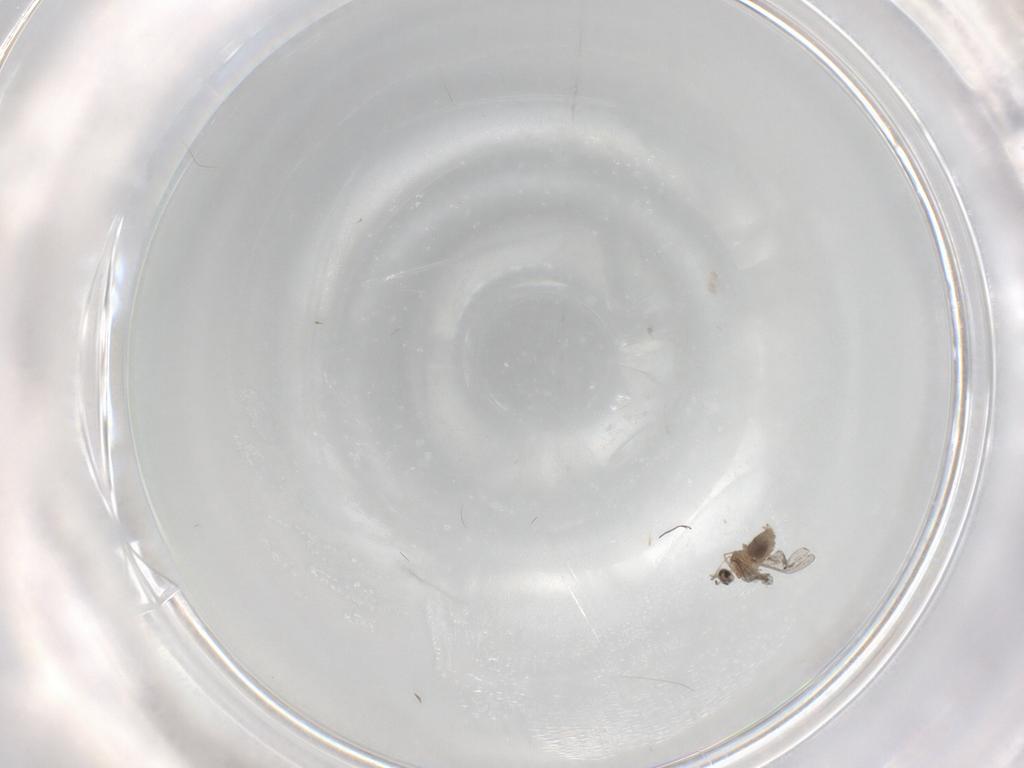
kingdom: Animalia
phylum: Arthropoda
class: Insecta
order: Diptera
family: Cecidomyiidae
